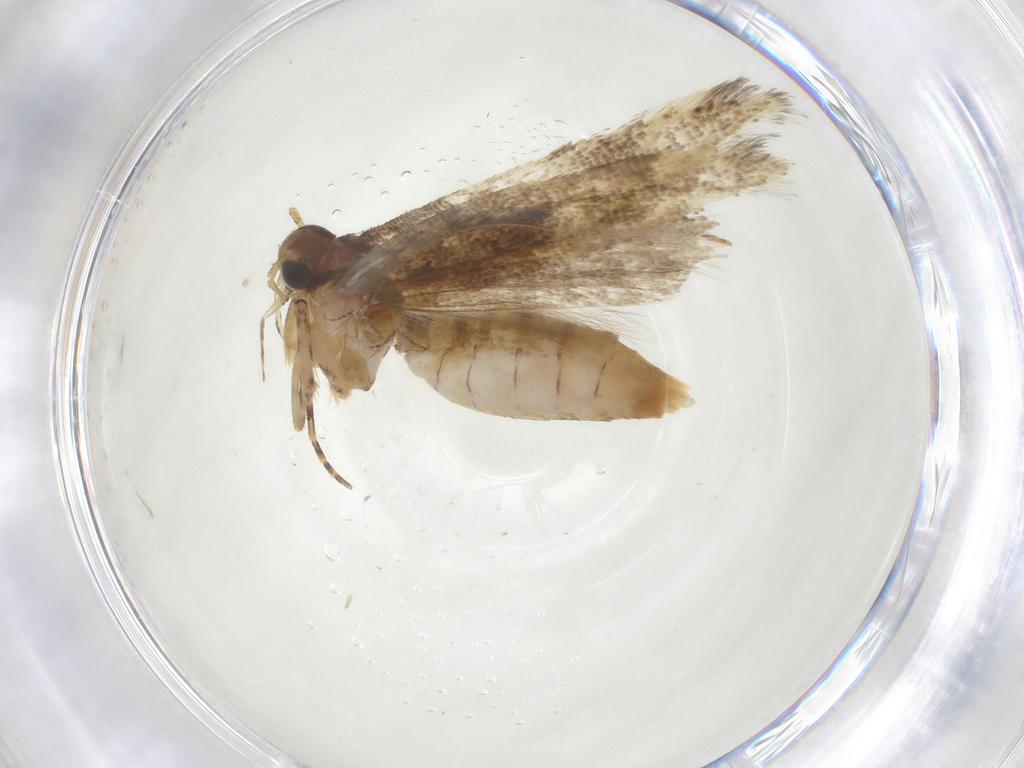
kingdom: Animalia
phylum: Arthropoda
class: Insecta
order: Lepidoptera
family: Gelechiidae
